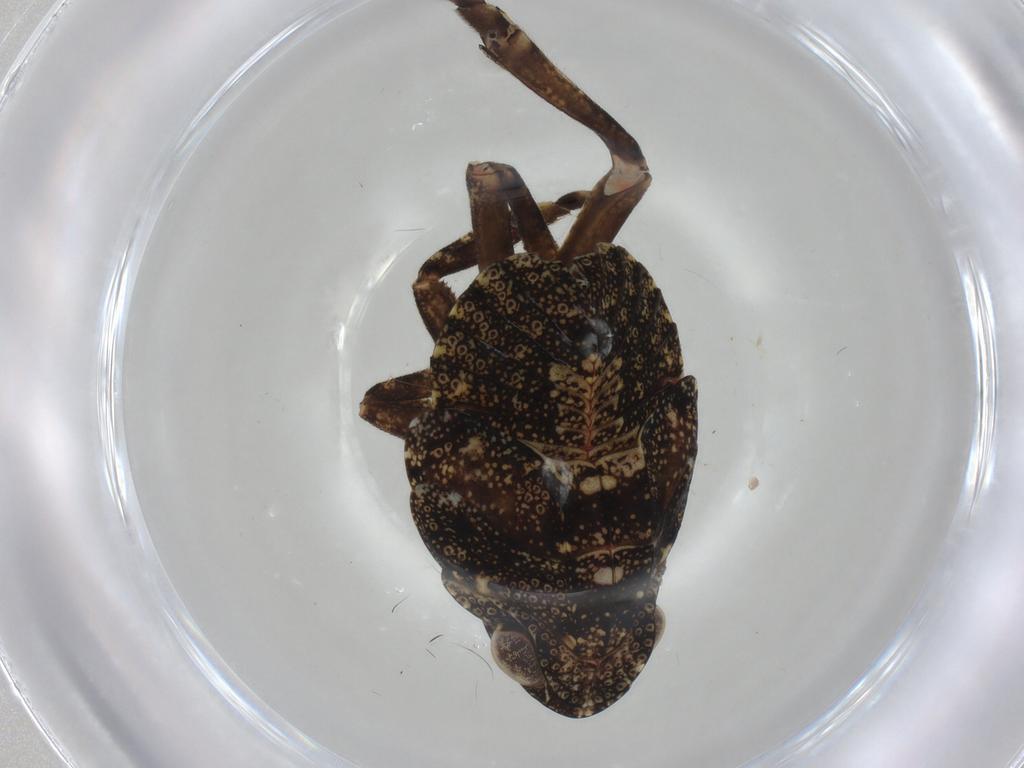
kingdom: Animalia
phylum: Arthropoda
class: Insecta
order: Hemiptera
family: Nogodinidae
